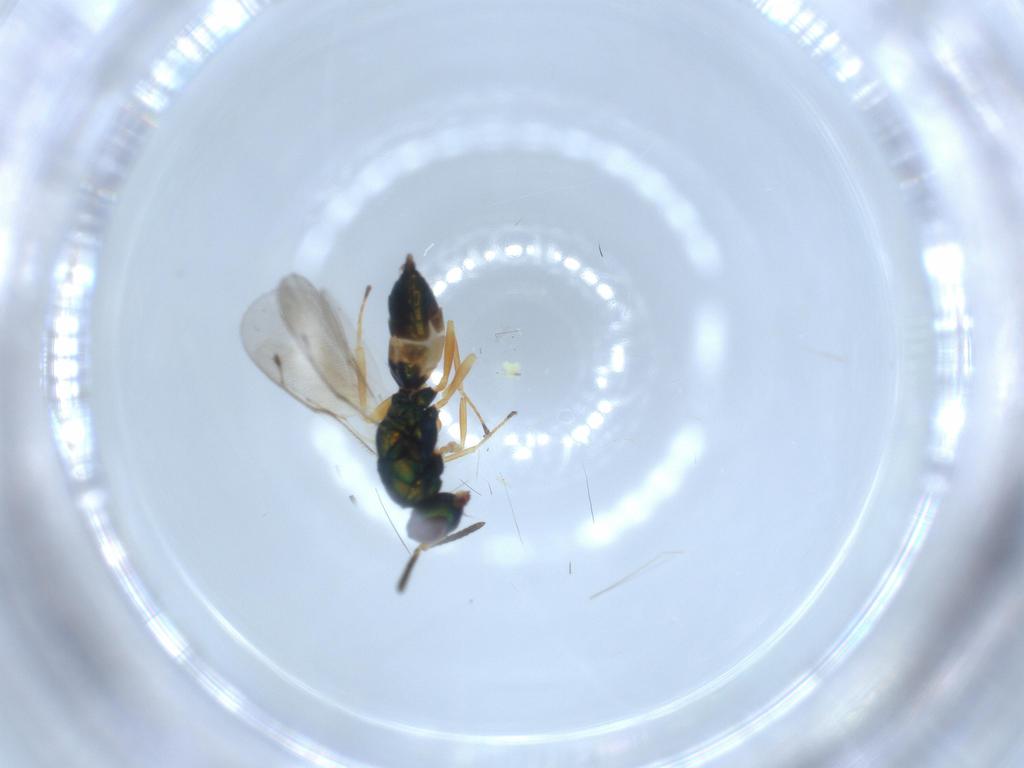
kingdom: Animalia
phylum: Arthropoda
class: Insecta
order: Hymenoptera
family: Pteromalidae
